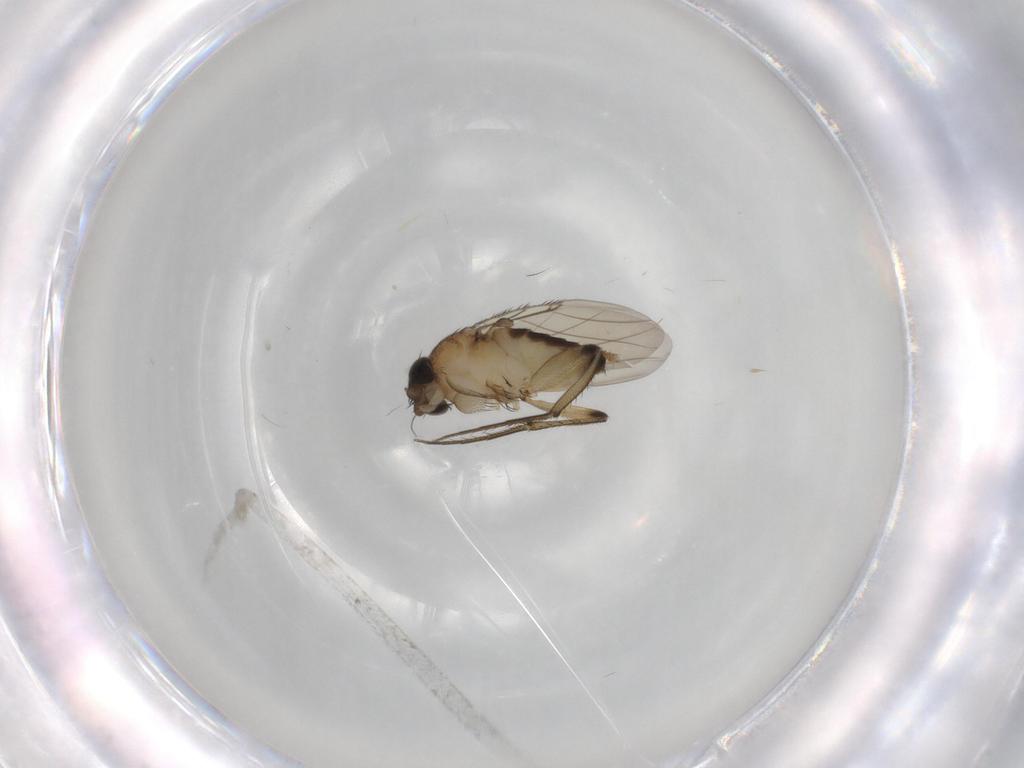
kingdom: Animalia
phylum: Arthropoda
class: Insecta
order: Diptera
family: Phoridae
